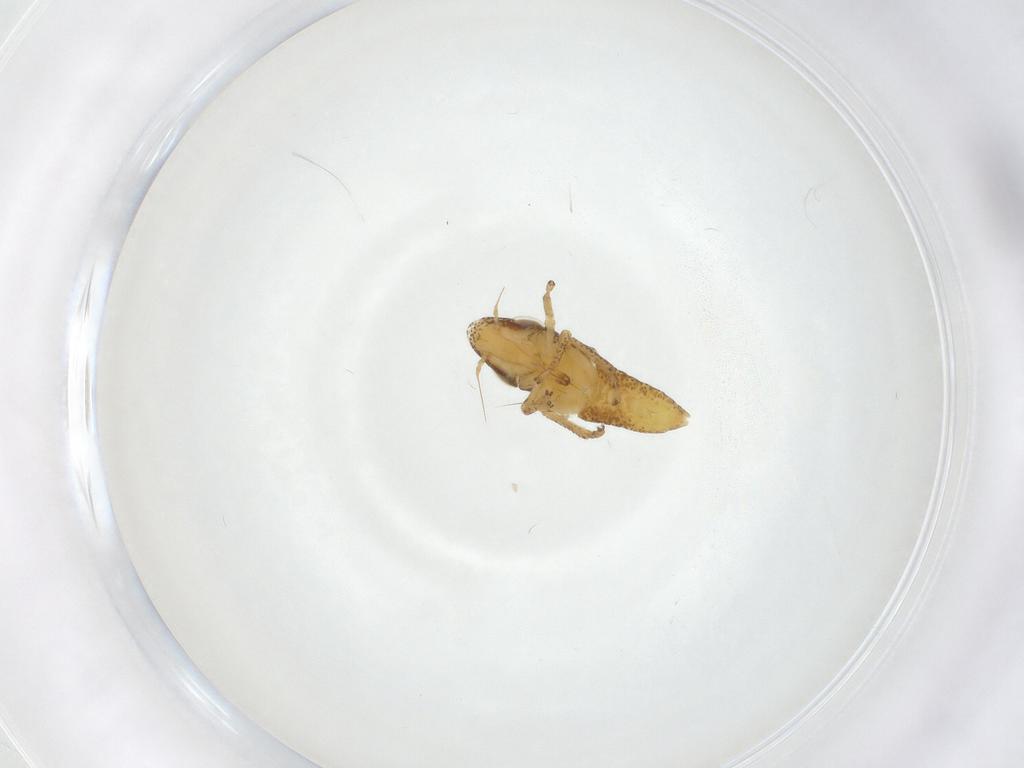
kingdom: Animalia
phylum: Arthropoda
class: Insecta
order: Hemiptera
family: Cicadellidae
